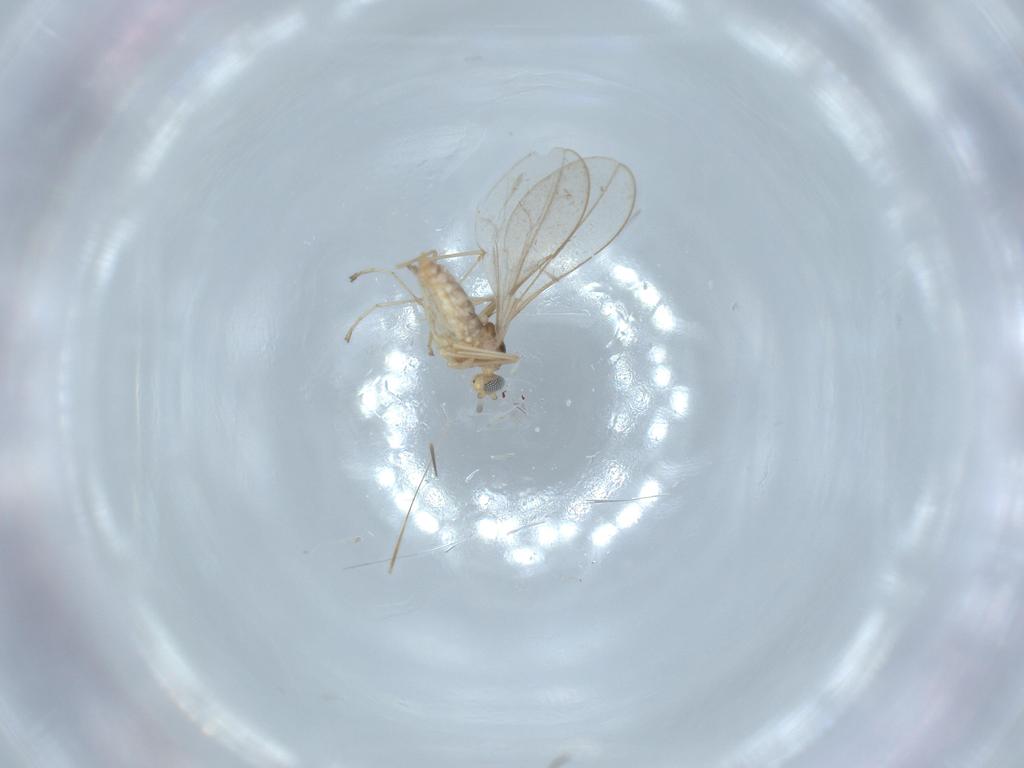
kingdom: Animalia
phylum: Arthropoda
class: Insecta
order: Diptera
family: Cecidomyiidae
